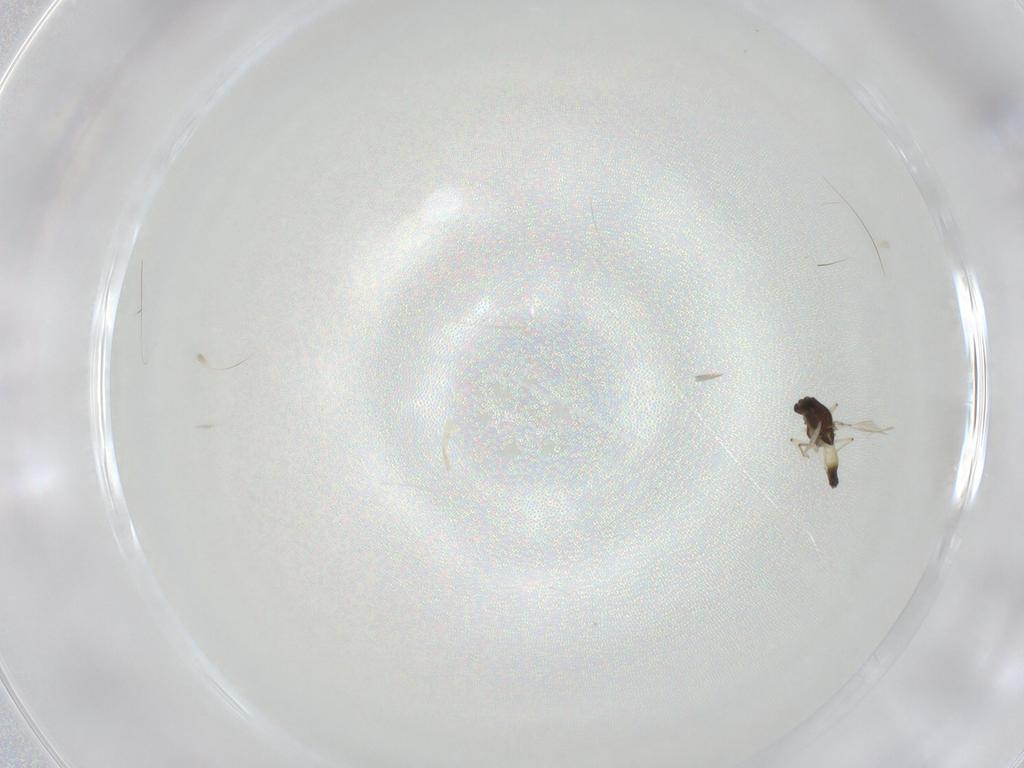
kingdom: Animalia
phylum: Arthropoda
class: Insecta
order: Diptera
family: Chironomidae
